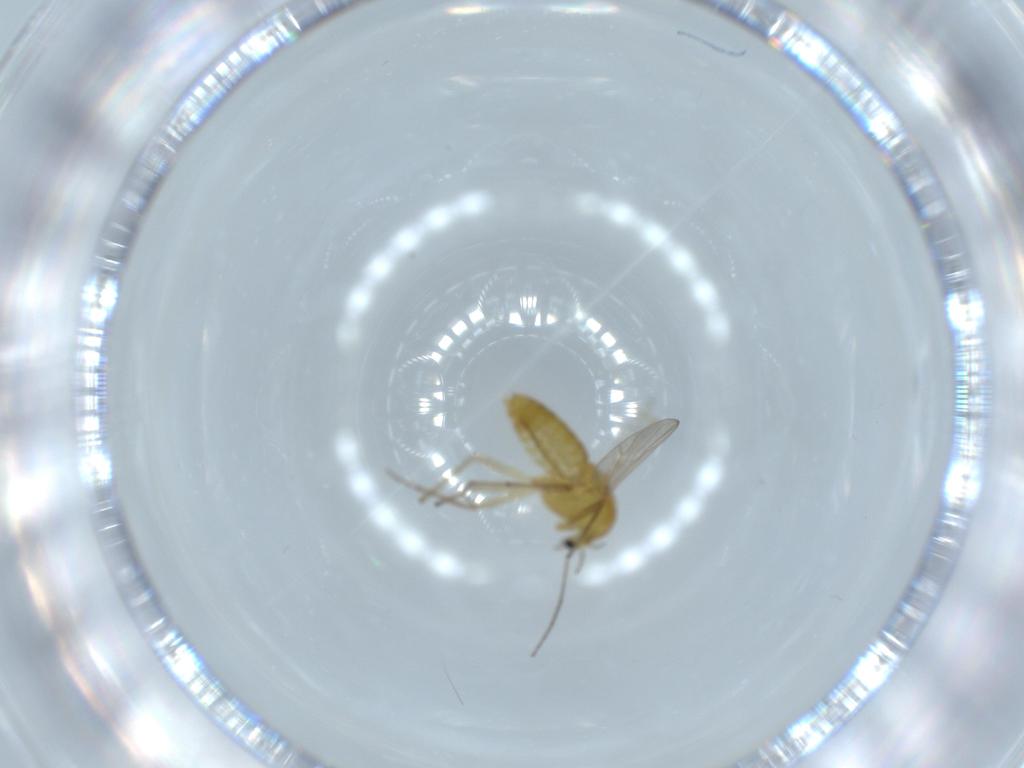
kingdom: Animalia
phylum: Arthropoda
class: Insecta
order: Diptera
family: Chironomidae
